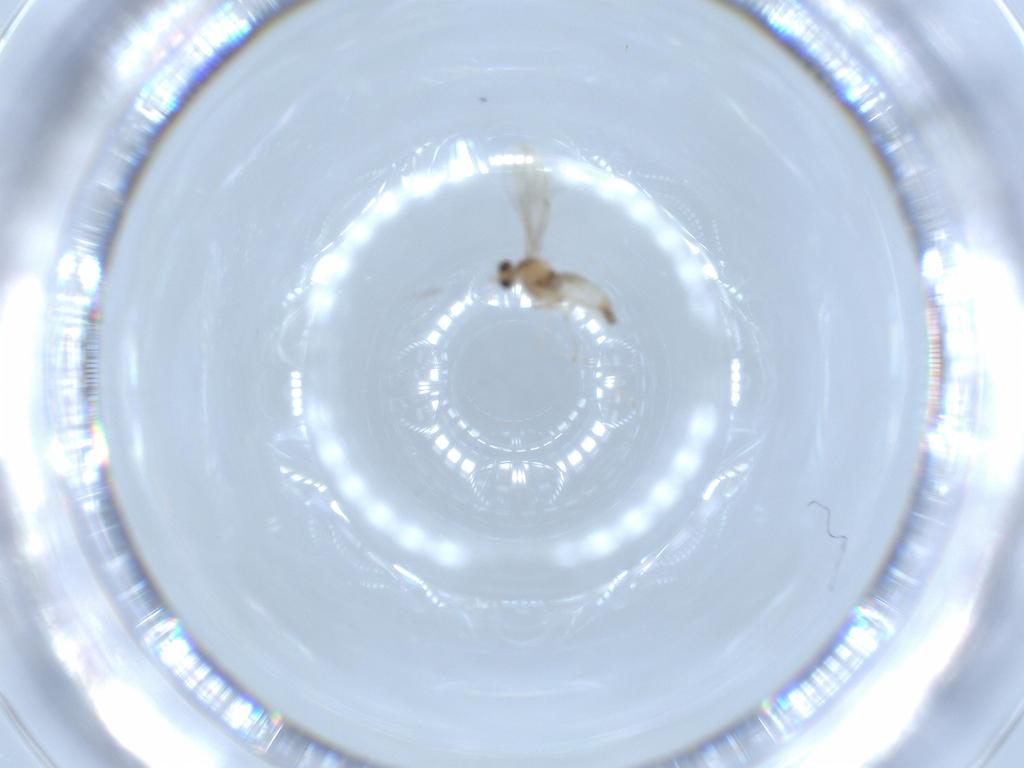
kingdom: Animalia
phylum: Arthropoda
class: Insecta
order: Diptera
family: Cecidomyiidae
